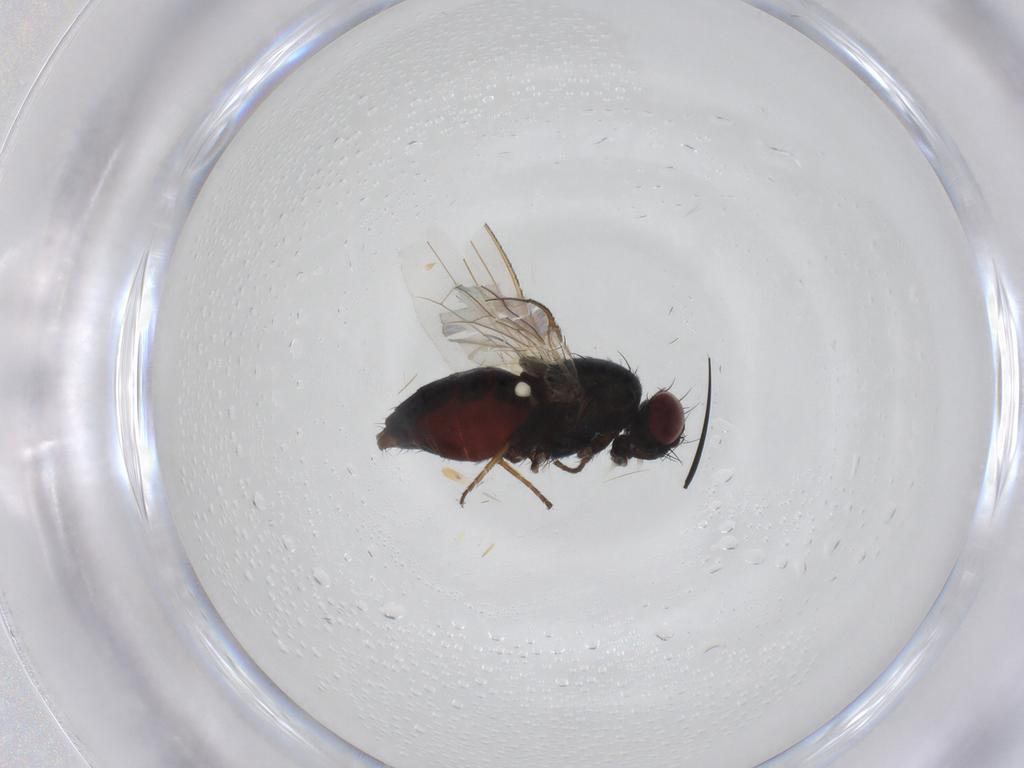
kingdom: Animalia
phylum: Arthropoda
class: Insecta
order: Diptera
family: Carnidae
